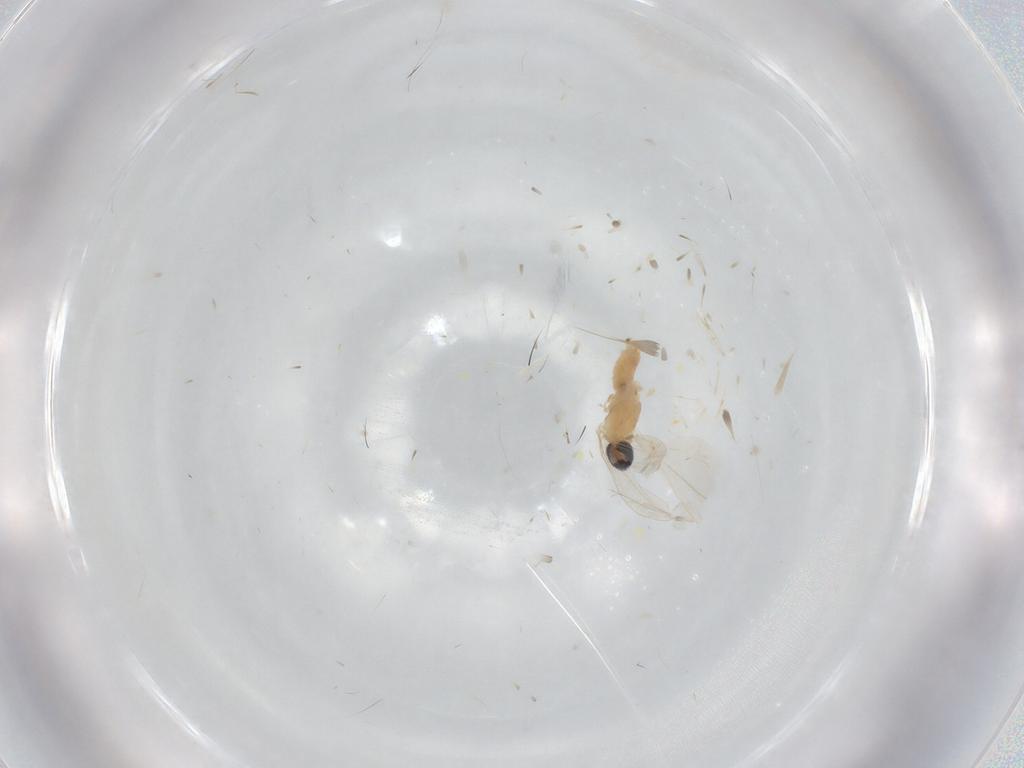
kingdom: Animalia
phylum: Arthropoda
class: Insecta
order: Diptera
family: Cecidomyiidae
